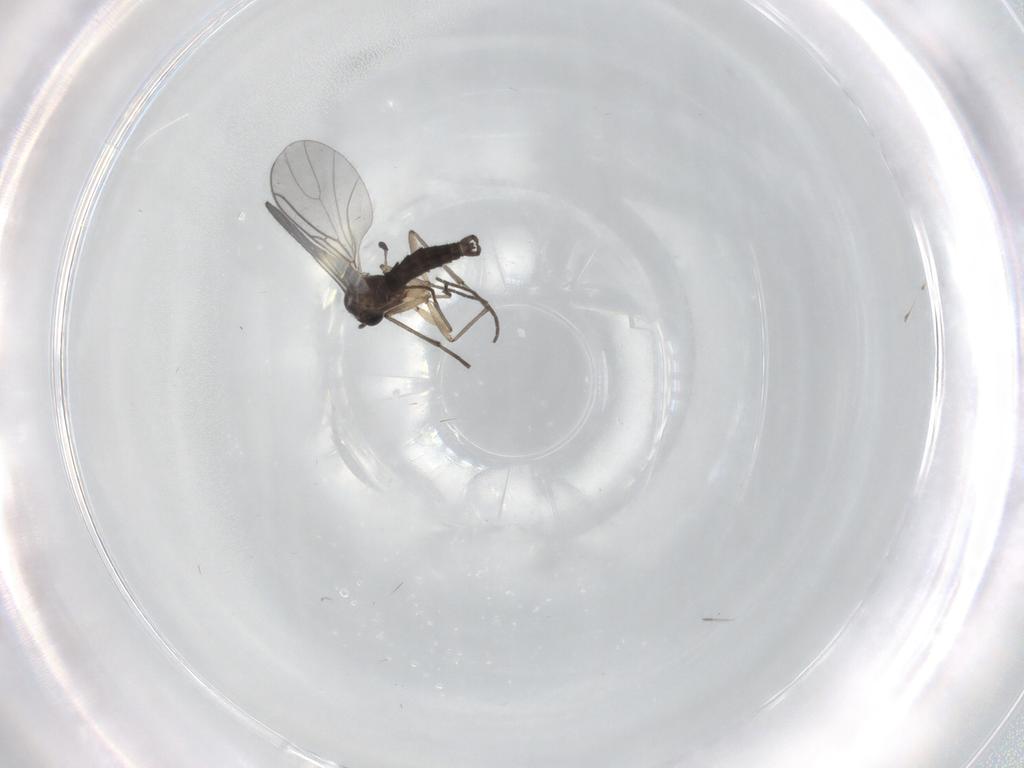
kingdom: Animalia
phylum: Arthropoda
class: Insecta
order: Diptera
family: Sciaridae
